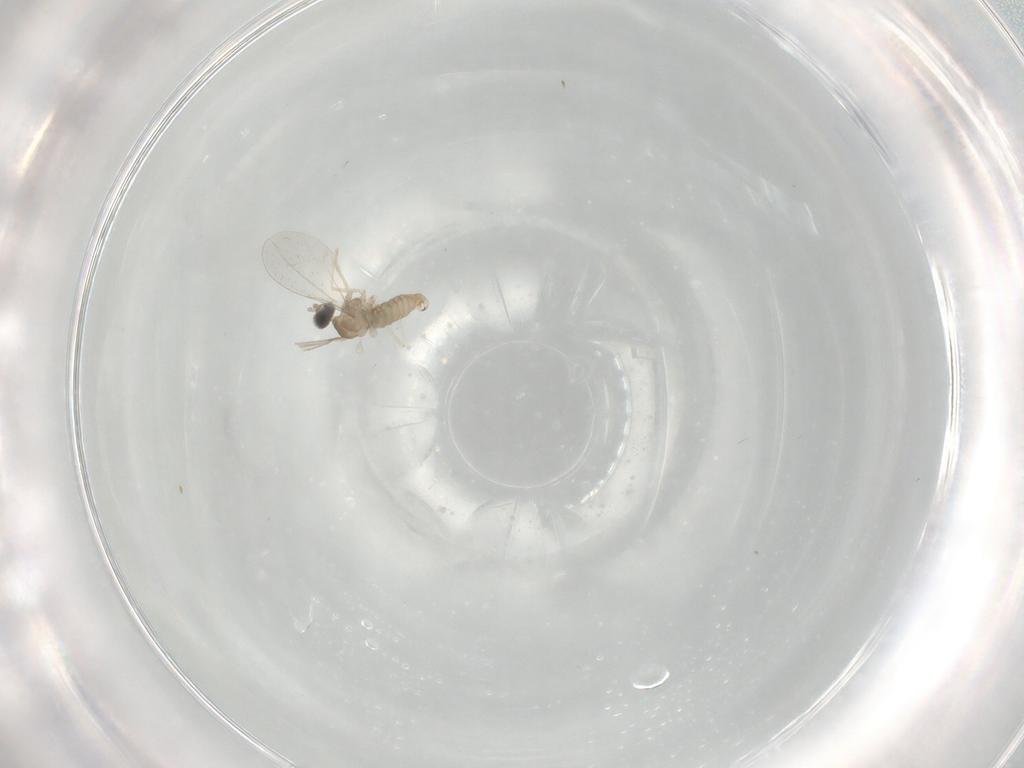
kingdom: Animalia
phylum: Arthropoda
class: Insecta
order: Diptera
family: Cecidomyiidae
